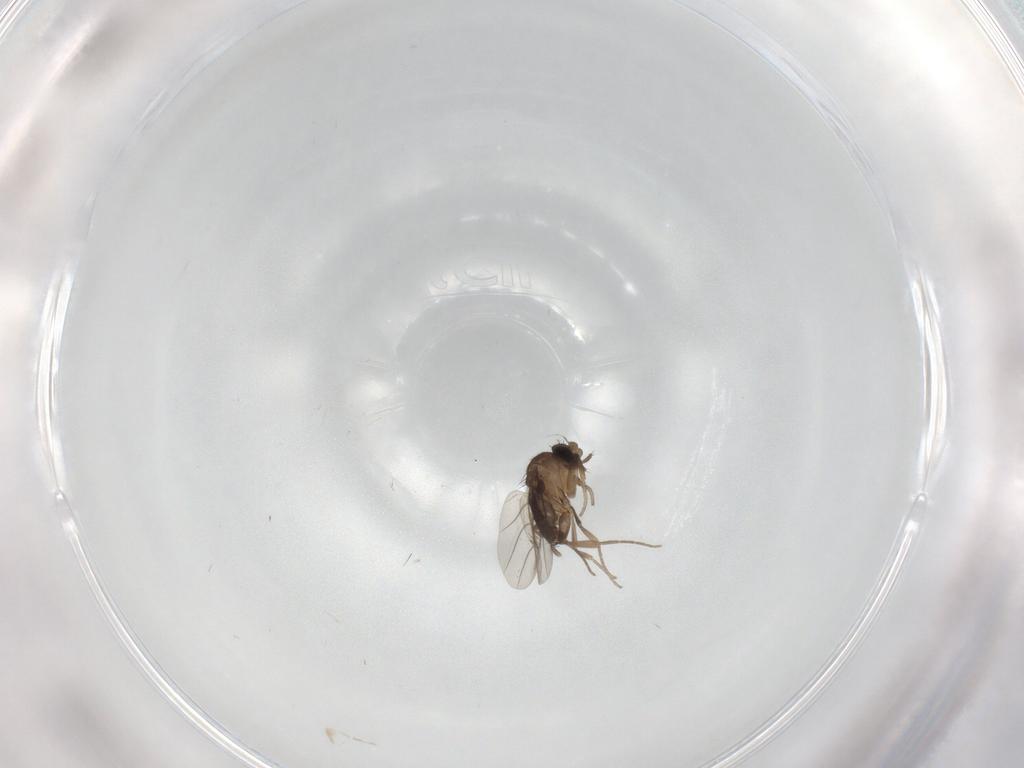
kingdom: Animalia
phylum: Arthropoda
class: Insecta
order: Diptera
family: Phoridae
